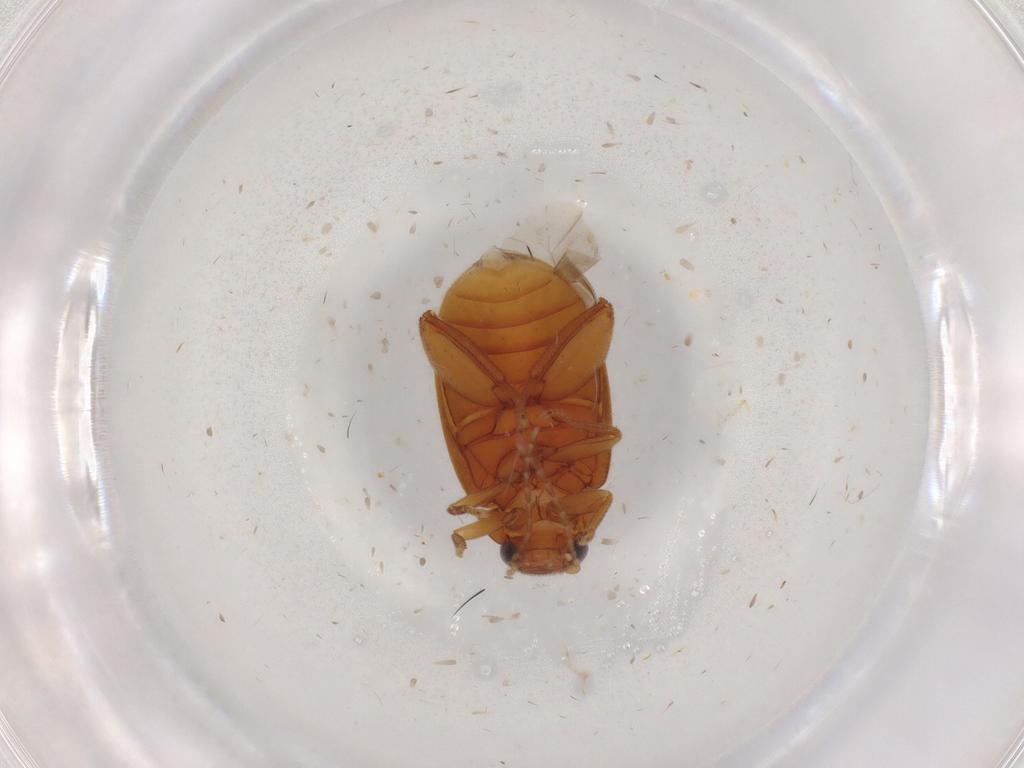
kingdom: Animalia
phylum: Arthropoda
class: Insecta
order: Coleoptera
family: Scirtidae
